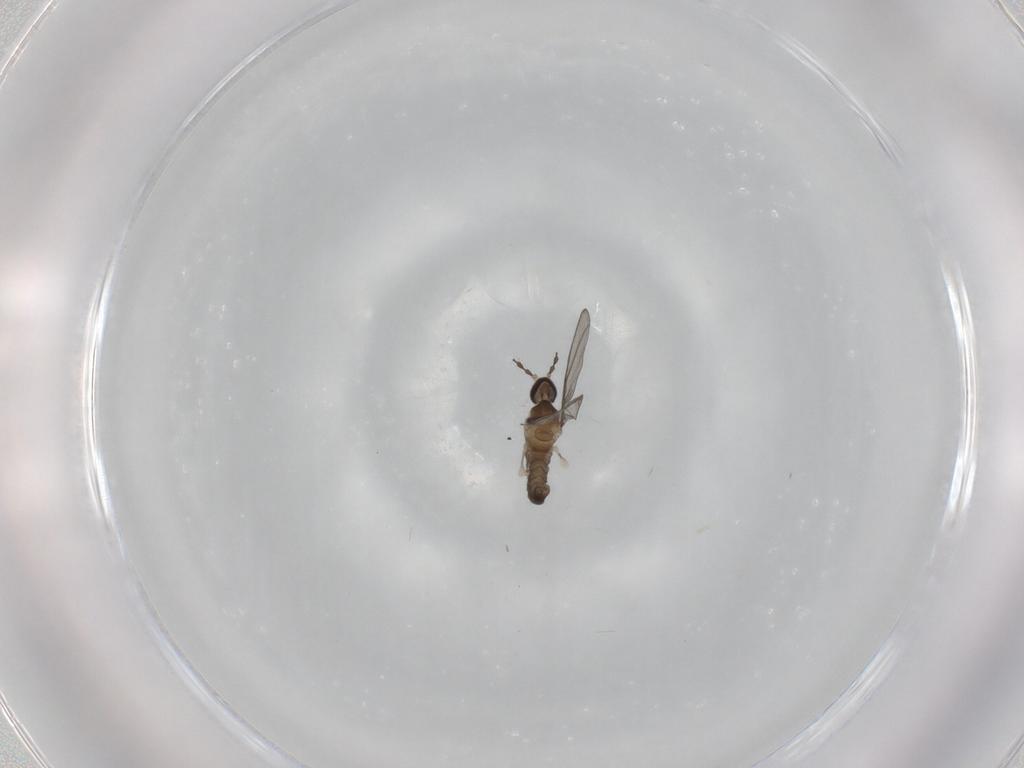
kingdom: Animalia
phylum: Arthropoda
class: Insecta
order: Diptera
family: Cecidomyiidae
